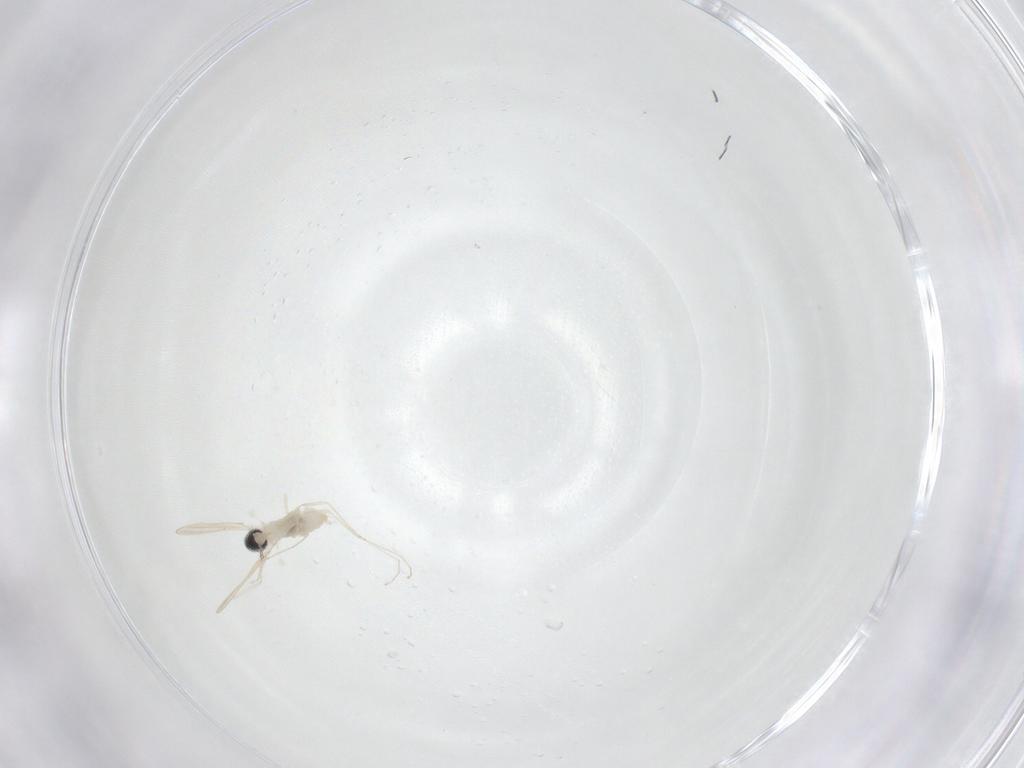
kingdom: Animalia
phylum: Arthropoda
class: Insecta
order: Diptera
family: Cecidomyiidae
